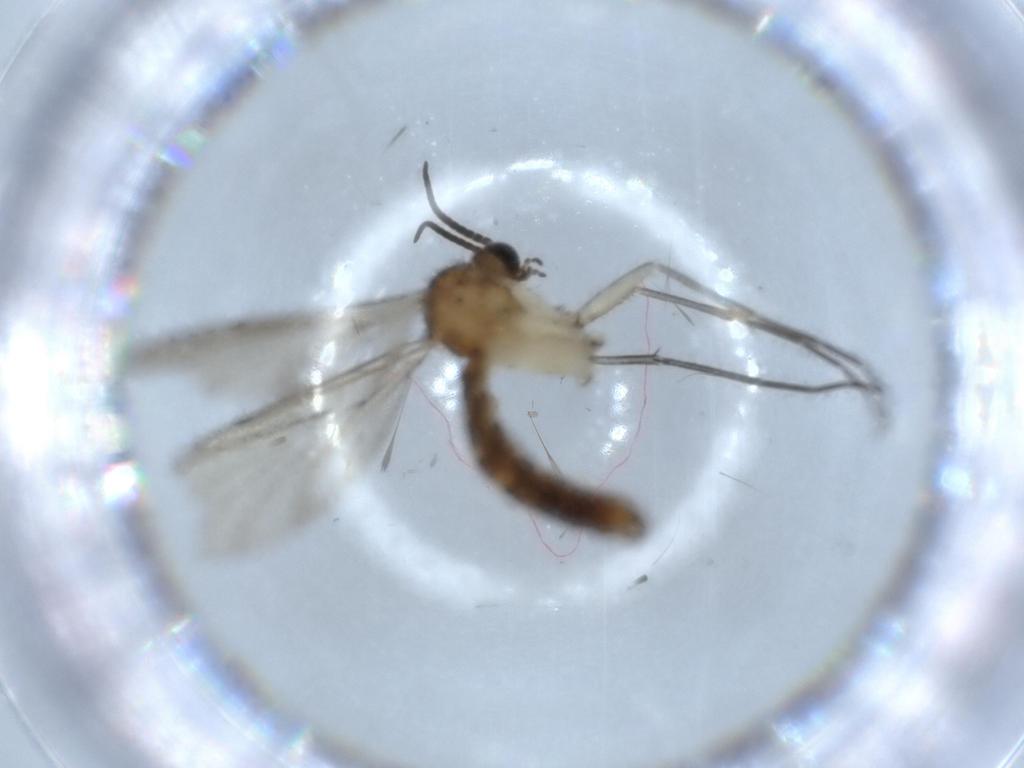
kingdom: Animalia
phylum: Arthropoda
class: Insecta
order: Diptera
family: Keroplatidae
